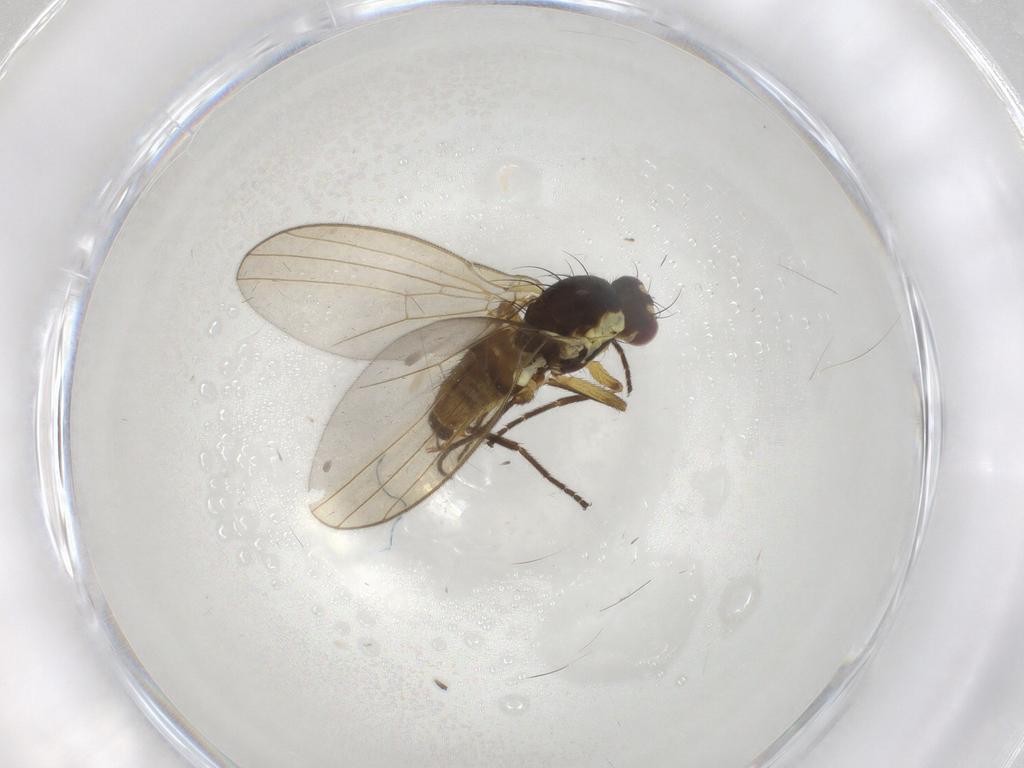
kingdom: Animalia
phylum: Arthropoda
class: Insecta
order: Diptera
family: Agromyzidae
